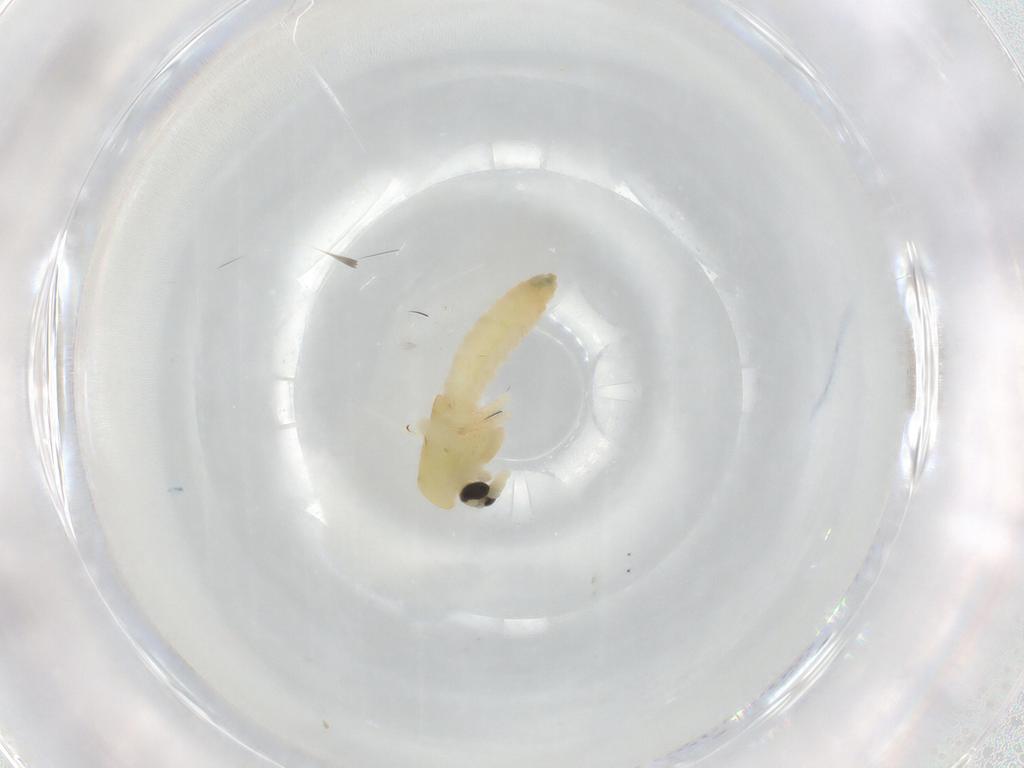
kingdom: Animalia
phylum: Arthropoda
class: Insecta
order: Diptera
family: Chironomidae
